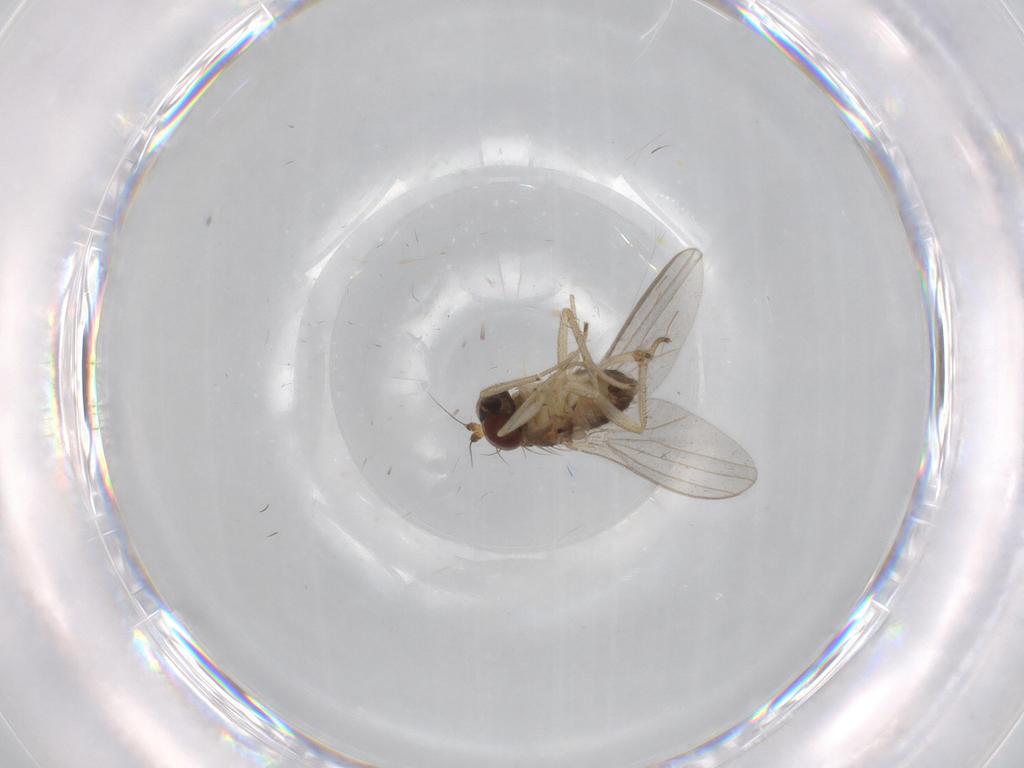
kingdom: Animalia
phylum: Arthropoda
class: Insecta
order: Diptera
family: Dolichopodidae
